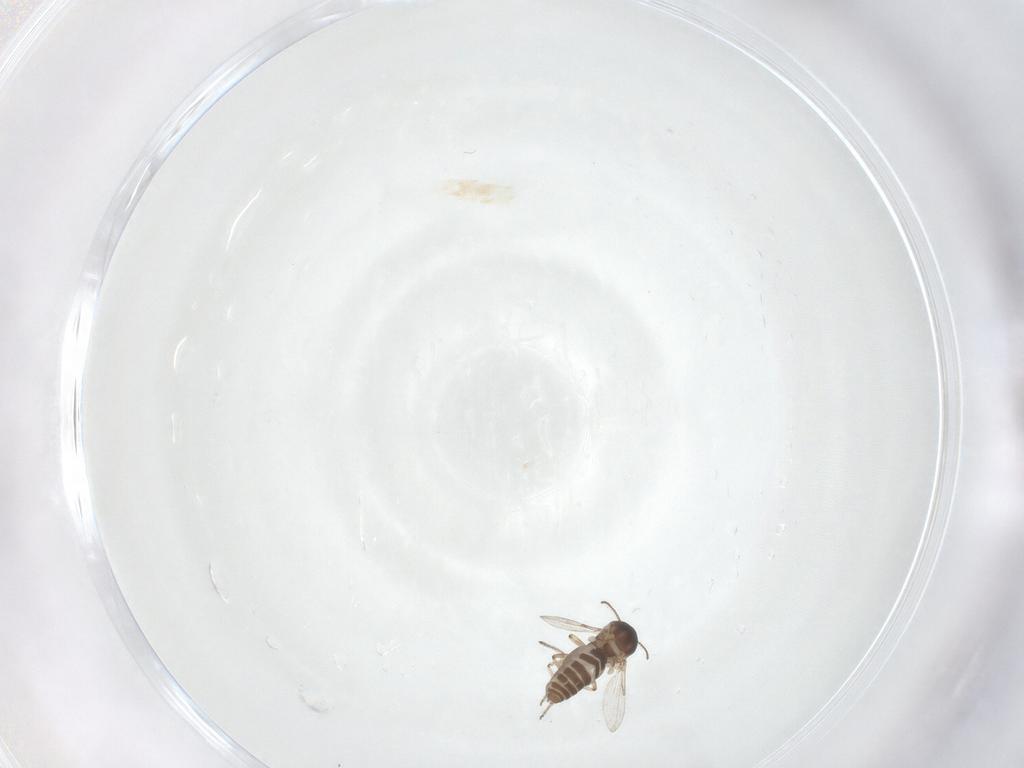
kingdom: Animalia
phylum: Arthropoda
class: Insecta
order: Diptera
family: Ceratopogonidae
